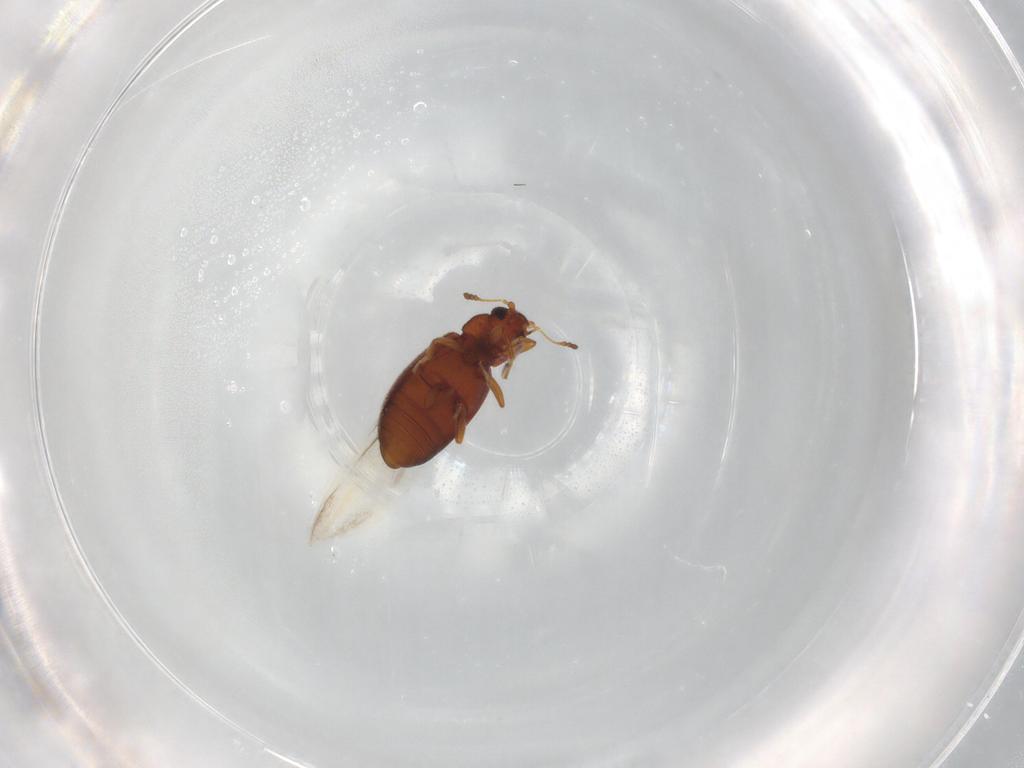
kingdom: Animalia
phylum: Arthropoda
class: Insecta
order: Coleoptera
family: Latridiidae
